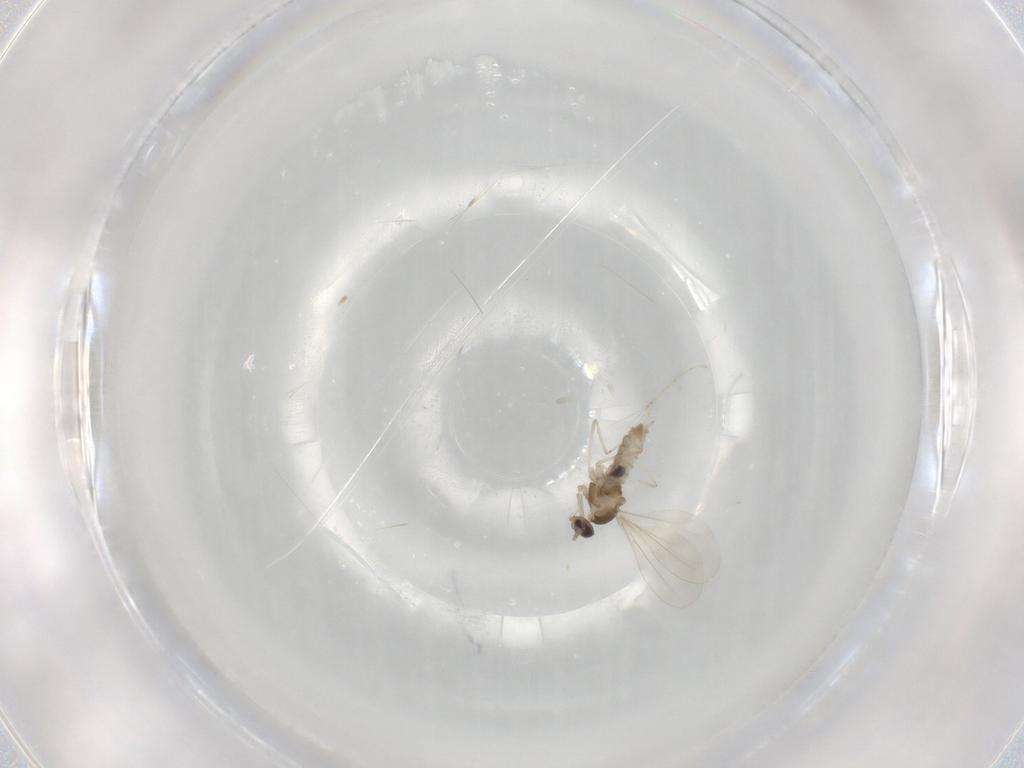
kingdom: Animalia
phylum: Arthropoda
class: Insecta
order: Diptera
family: Cecidomyiidae
